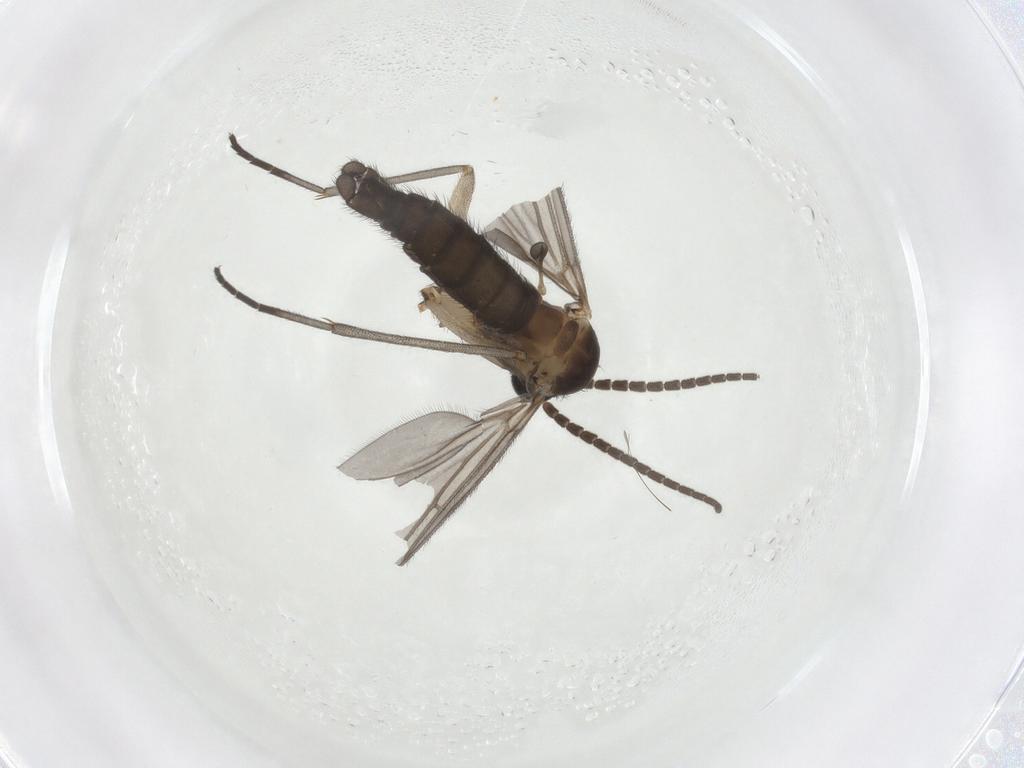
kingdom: Animalia
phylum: Arthropoda
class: Insecta
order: Diptera
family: Sciaridae
